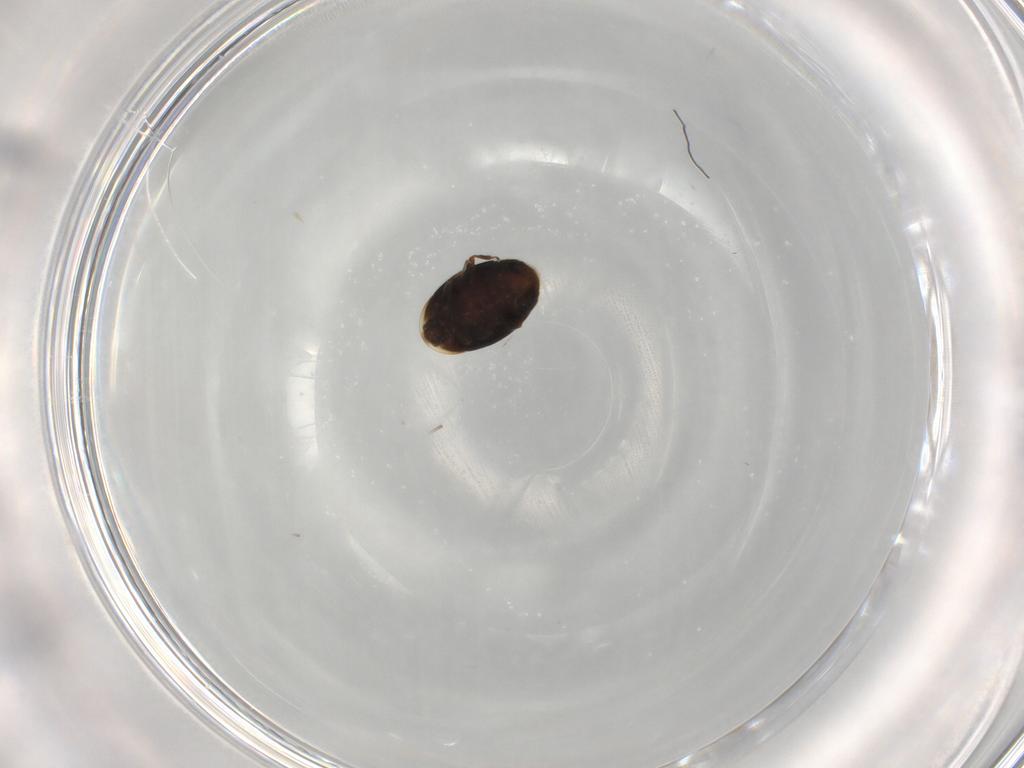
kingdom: Animalia
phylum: Arthropoda
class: Insecta
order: Coleoptera
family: Corylophidae
